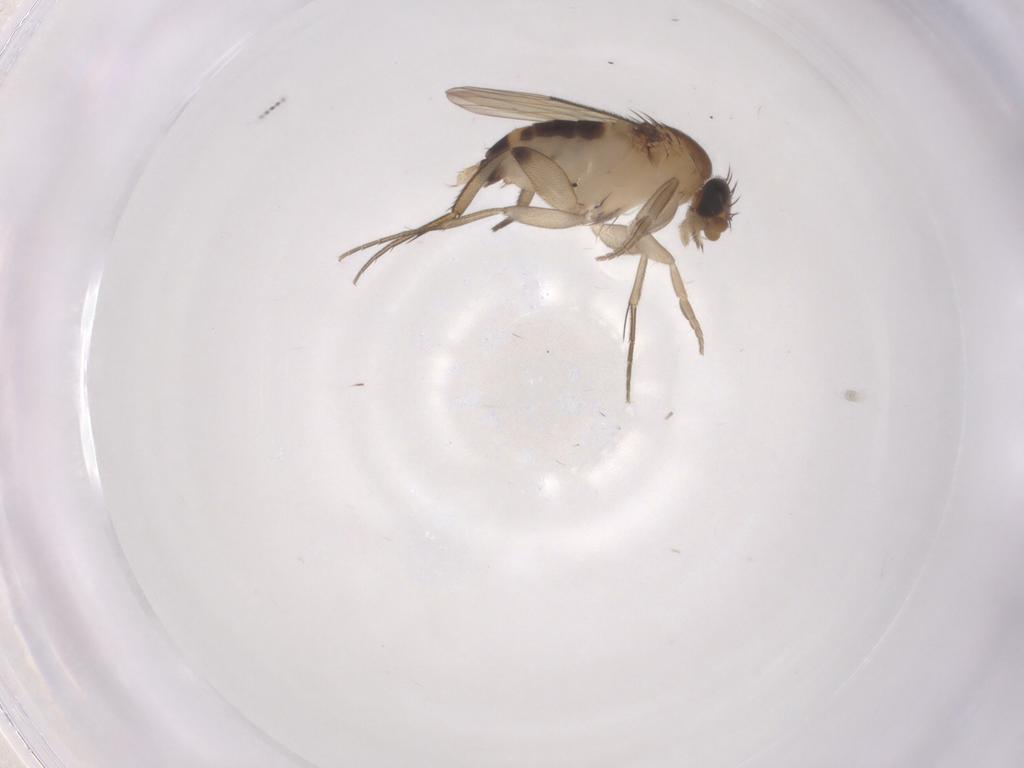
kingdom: Animalia
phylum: Arthropoda
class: Insecta
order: Diptera
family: Phoridae
